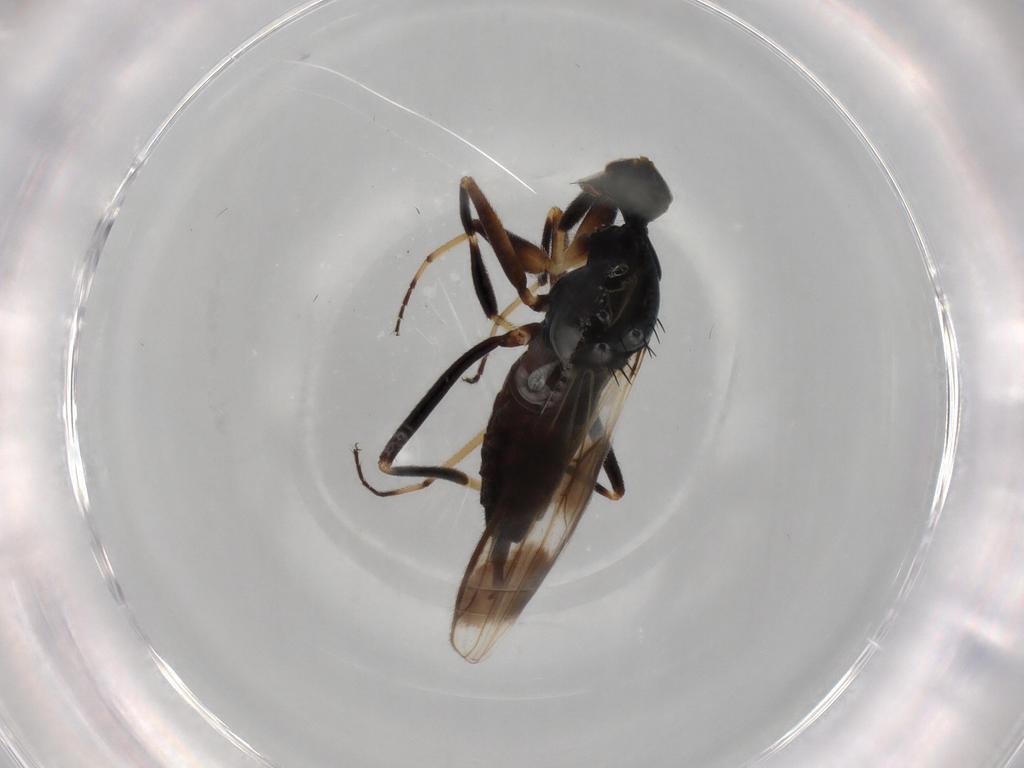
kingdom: Animalia
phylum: Arthropoda
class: Insecta
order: Diptera
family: Hybotidae
